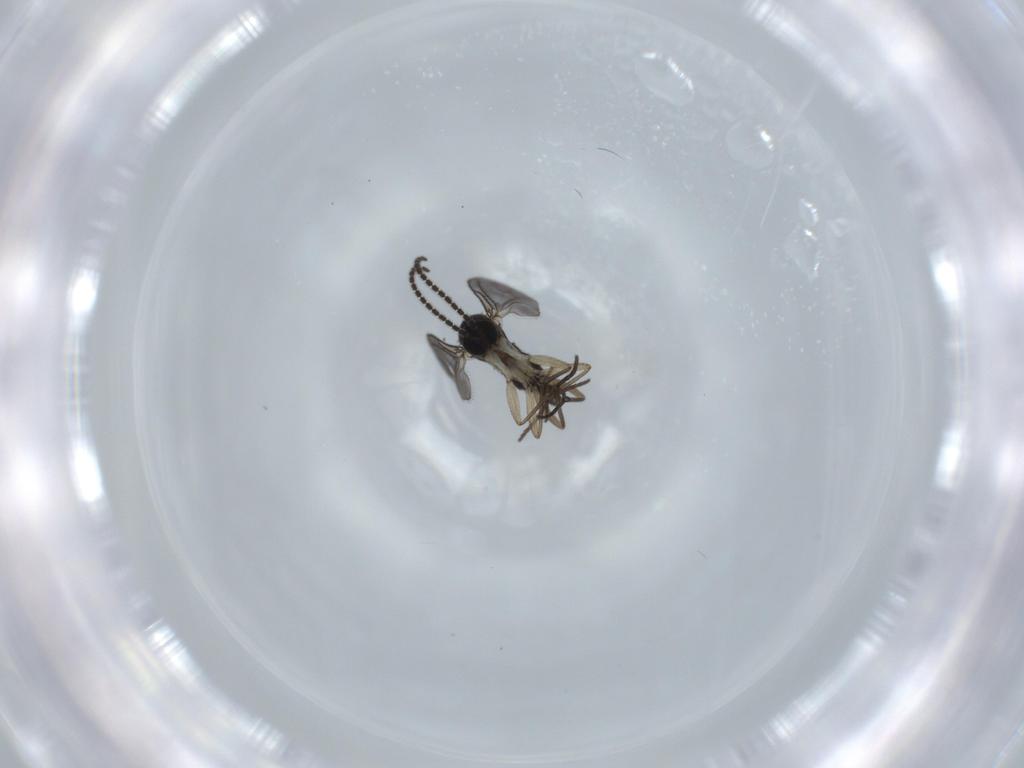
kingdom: Animalia
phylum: Arthropoda
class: Insecta
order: Diptera
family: Phoridae
